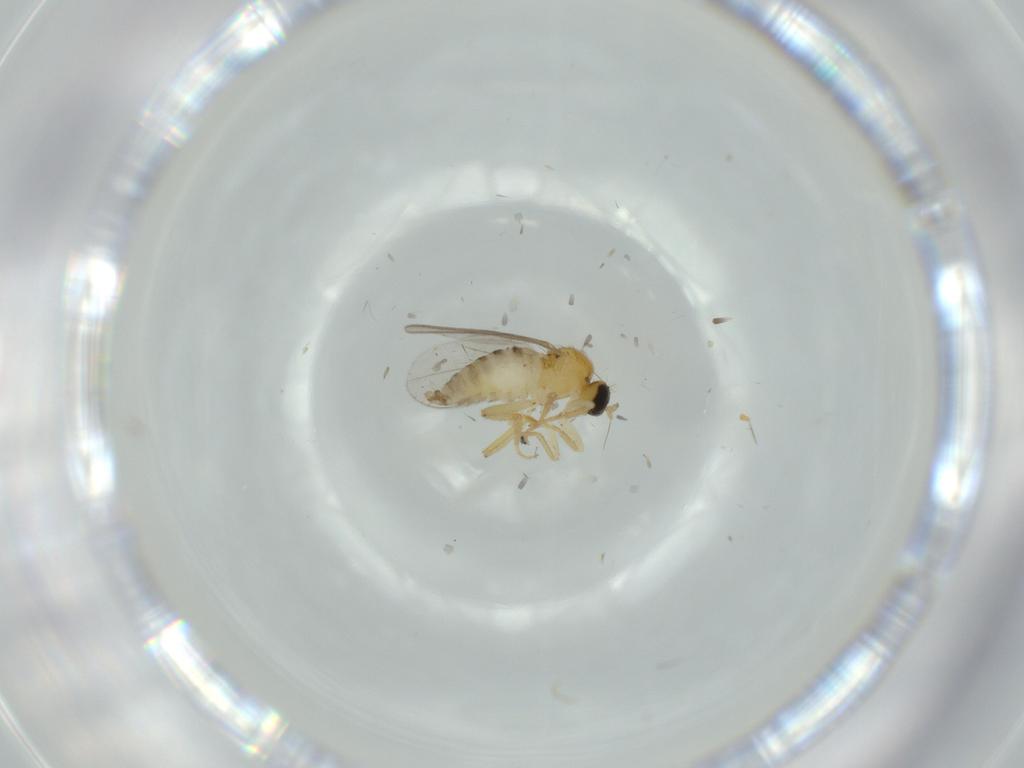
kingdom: Animalia
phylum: Arthropoda
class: Insecta
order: Diptera
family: Hybotidae
